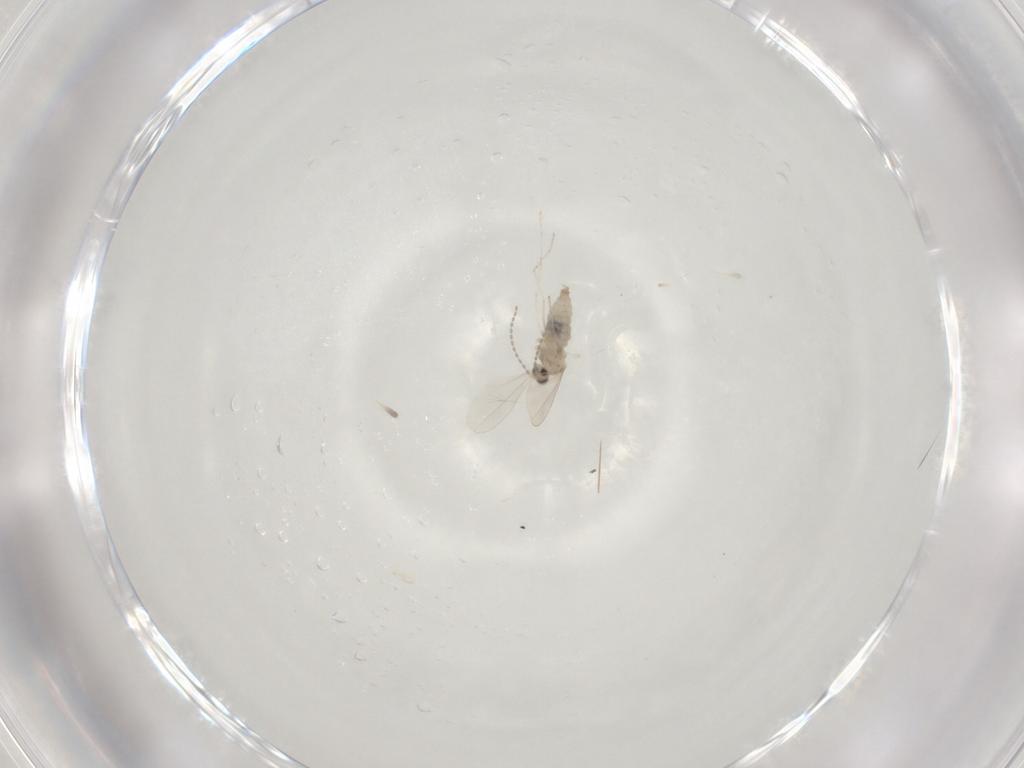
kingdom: Animalia
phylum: Arthropoda
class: Insecta
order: Diptera
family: Cecidomyiidae
